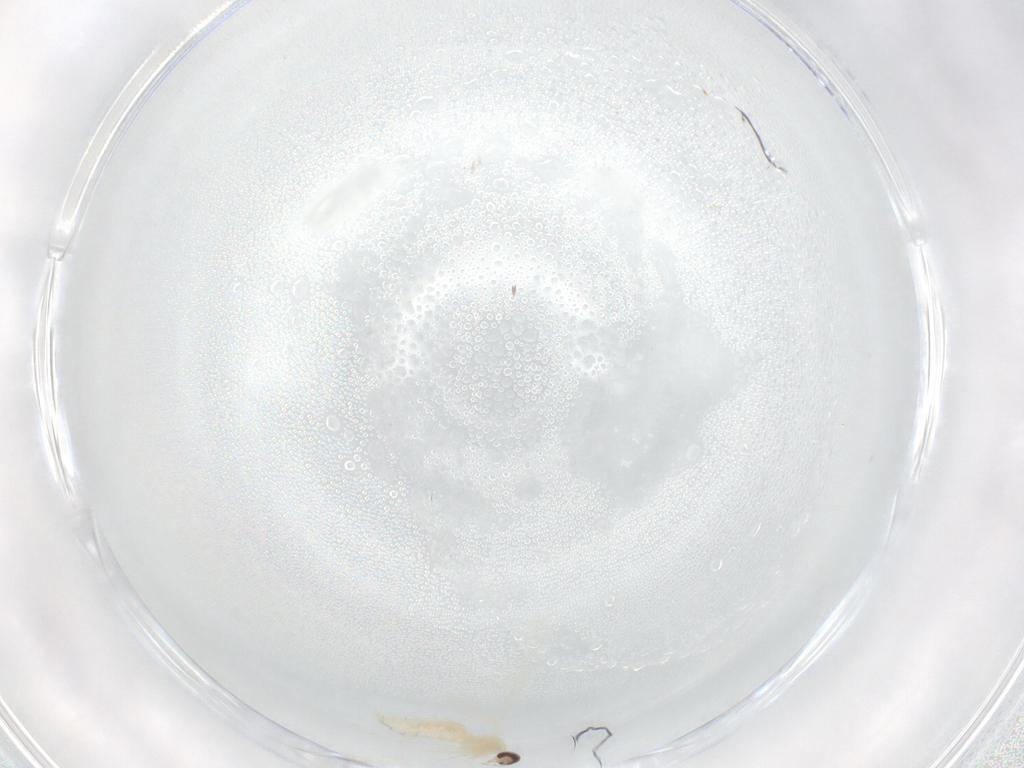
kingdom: Animalia
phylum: Arthropoda
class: Insecta
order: Diptera
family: Cecidomyiidae
